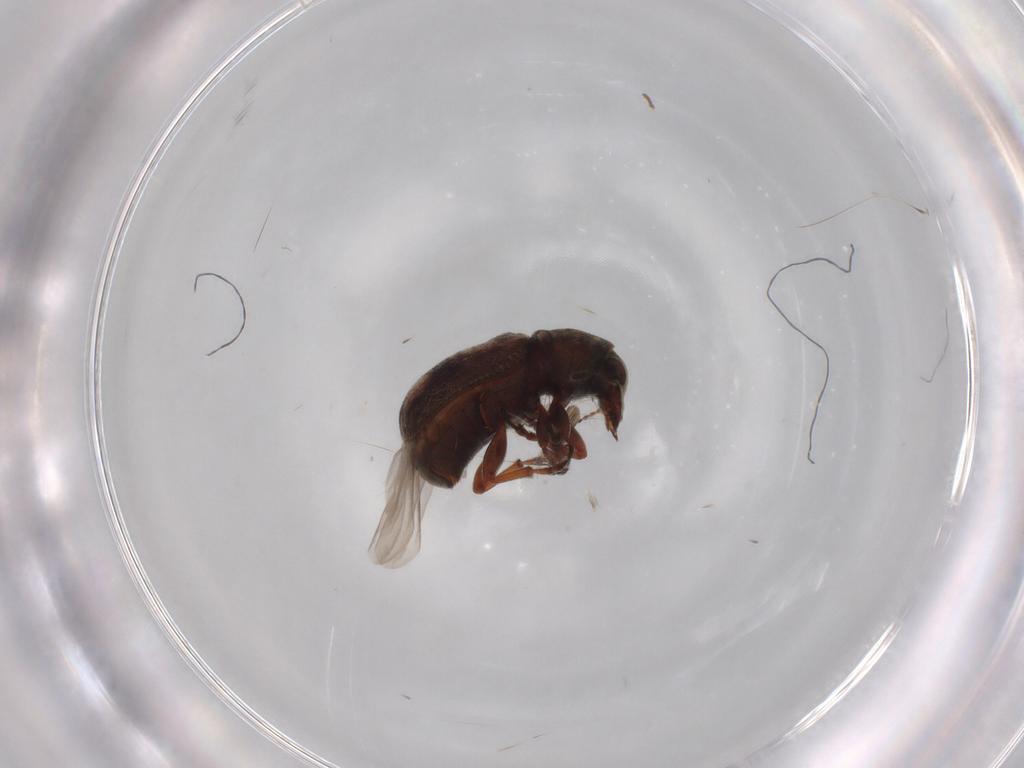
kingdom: Animalia
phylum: Arthropoda
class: Insecta
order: Coleoptera
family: Anthribidae
